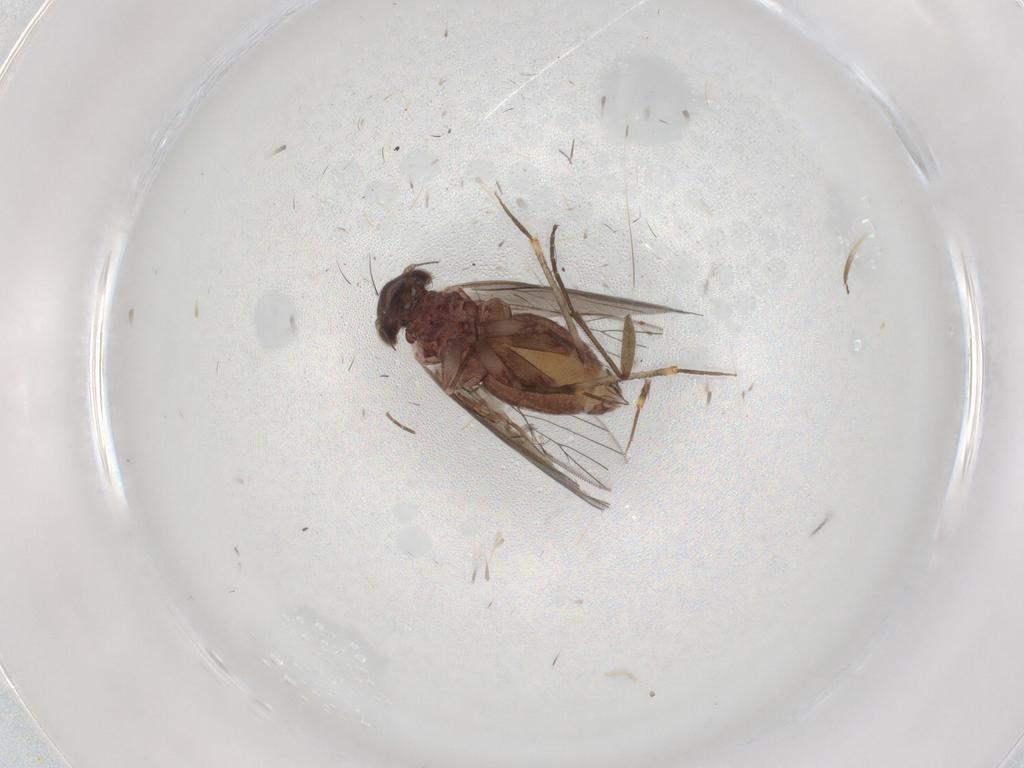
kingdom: Animalia
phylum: Arthropoda
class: Insecta
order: Psocodea
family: Lepidopsocidae
